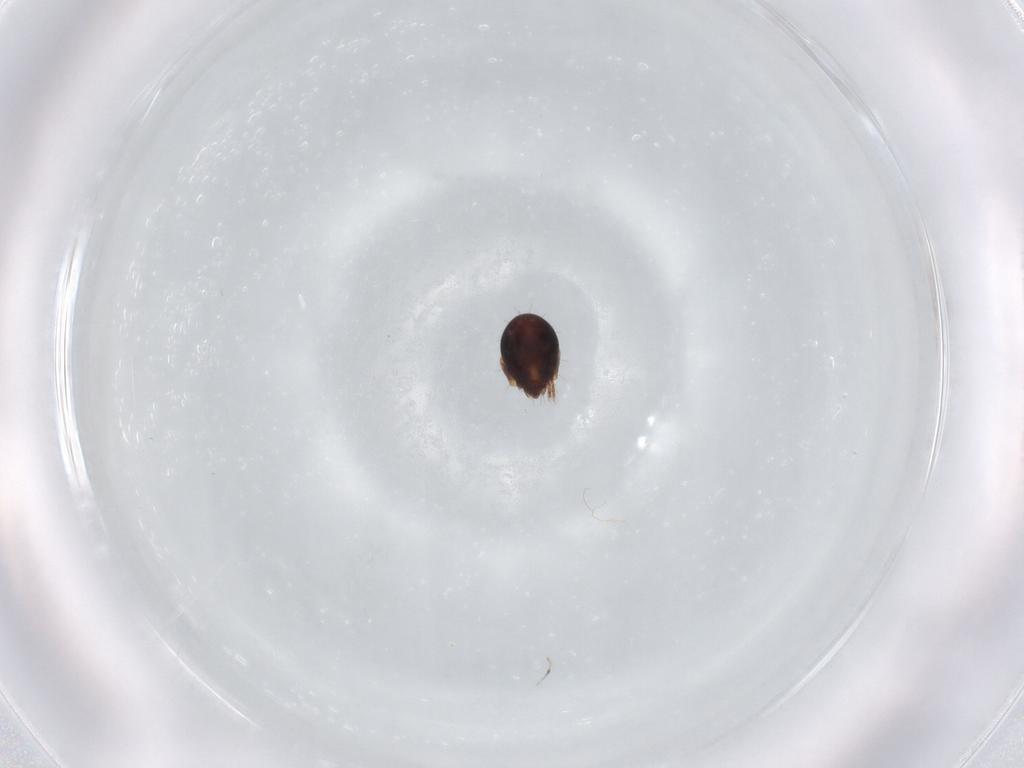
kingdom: Animalia
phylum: Arthropoda
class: Arachnida
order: Sarcoptiformes
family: Humerobatidae
